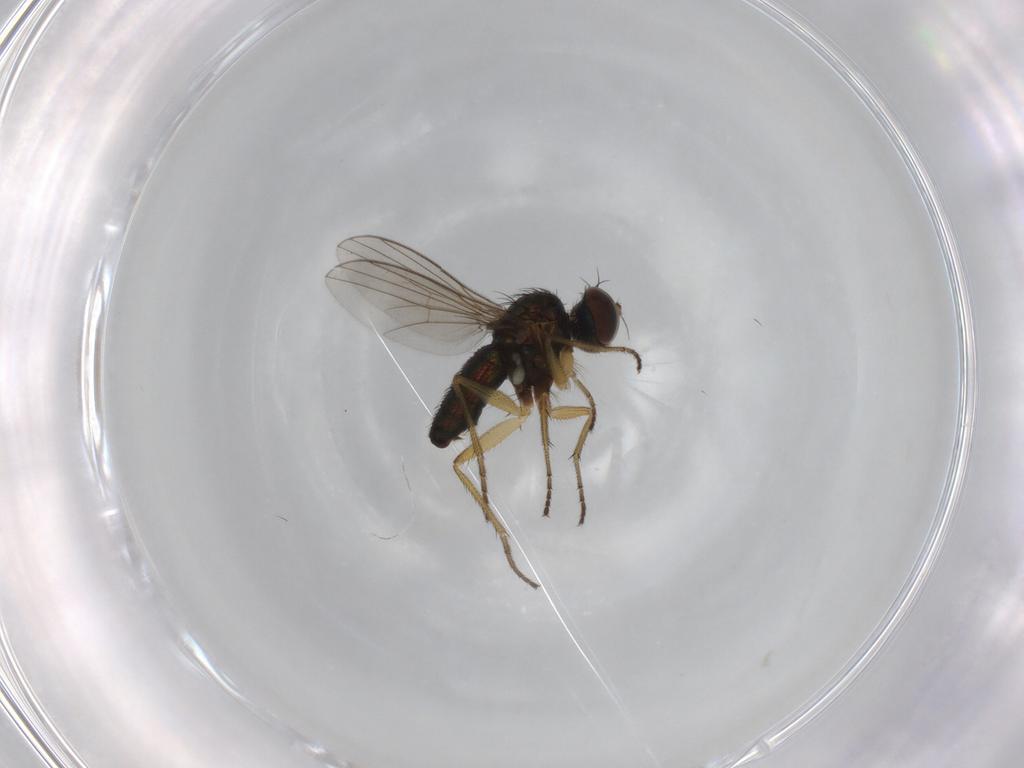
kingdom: Animalia
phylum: Arthropoda
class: Insecta
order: Diptera
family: Dolichopodidae
